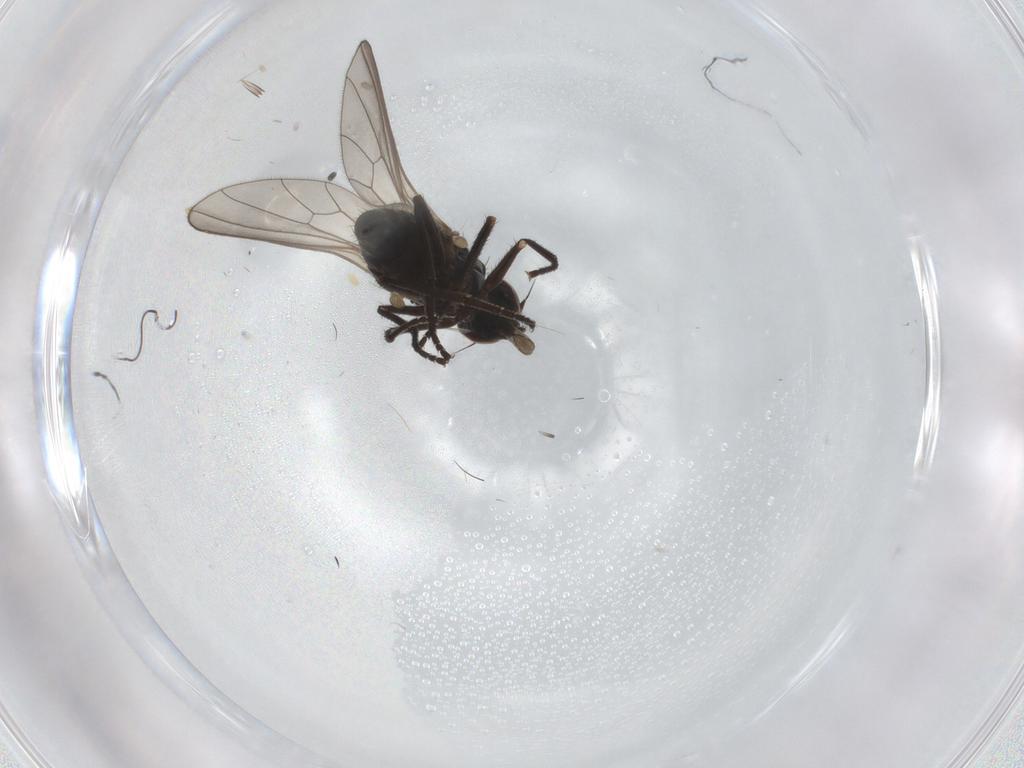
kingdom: Animalia
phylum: Arthropoda
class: Insecta
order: Diptera
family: Dolichopodidae
